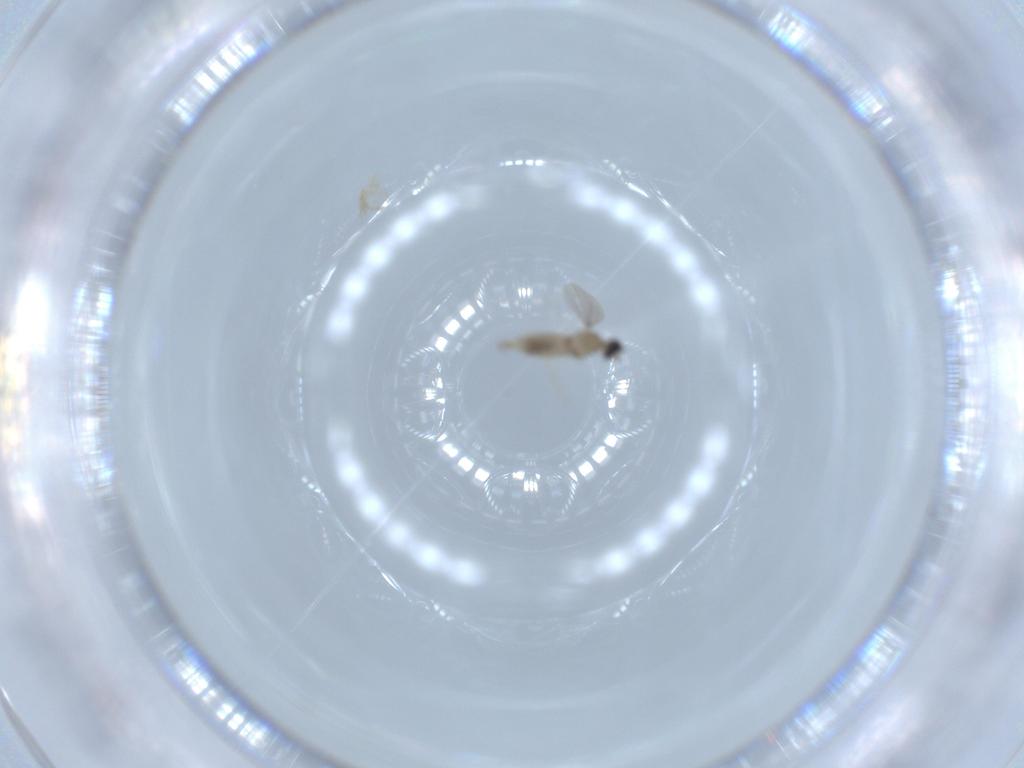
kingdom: Animalia
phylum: Arthropoda
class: Insecta
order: Diptera
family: Cecidomyiidae
